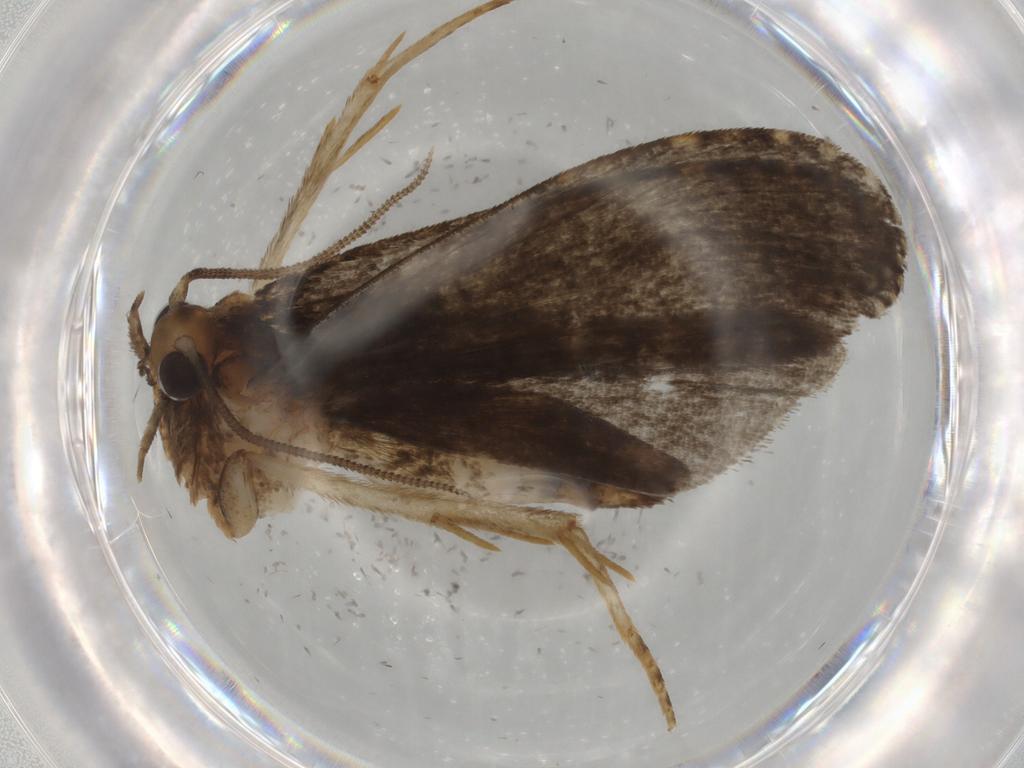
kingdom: Animalia
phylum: Arthropoda
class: Insecta
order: Lepidoptera
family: Tineidae
